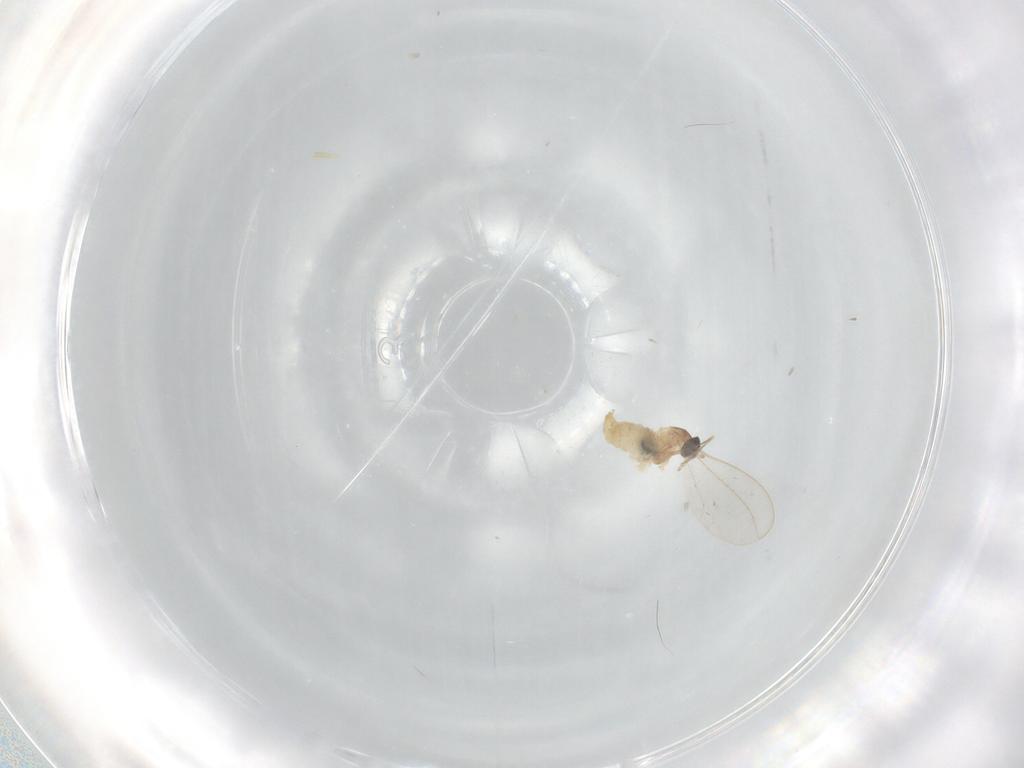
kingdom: Animalia
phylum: Arthropoda
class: Insecta
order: Diptera
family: Cecidomyiidae
